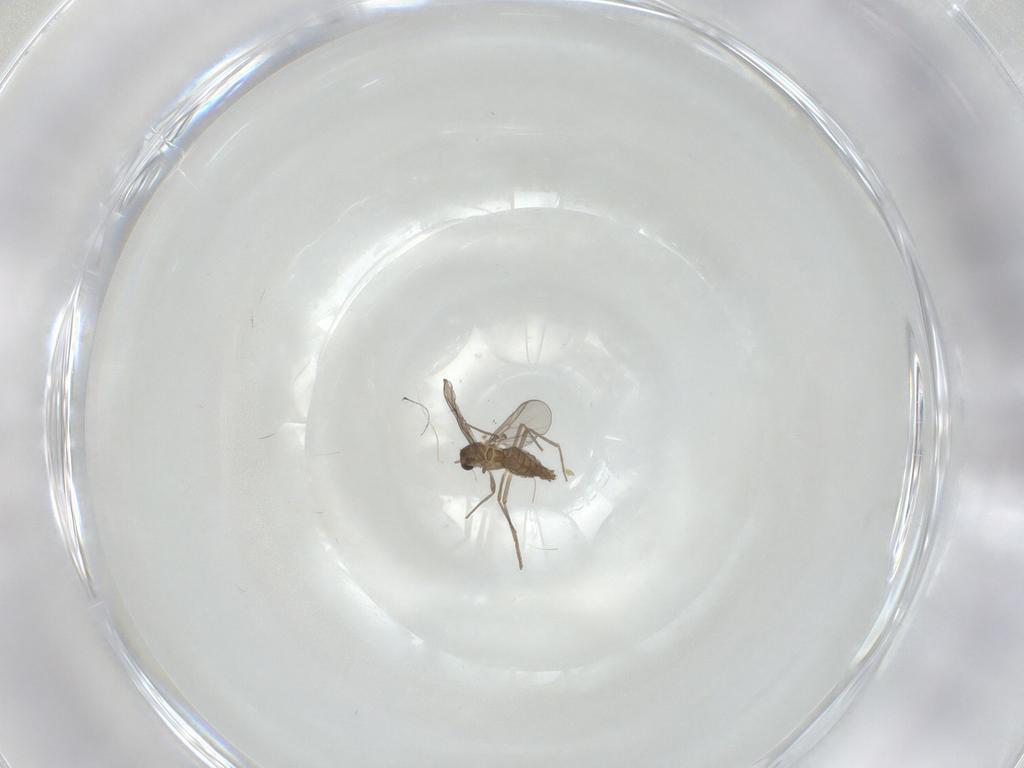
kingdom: Animalia
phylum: Arthropoda
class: Insecta
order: Diptera
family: Chironomidae
